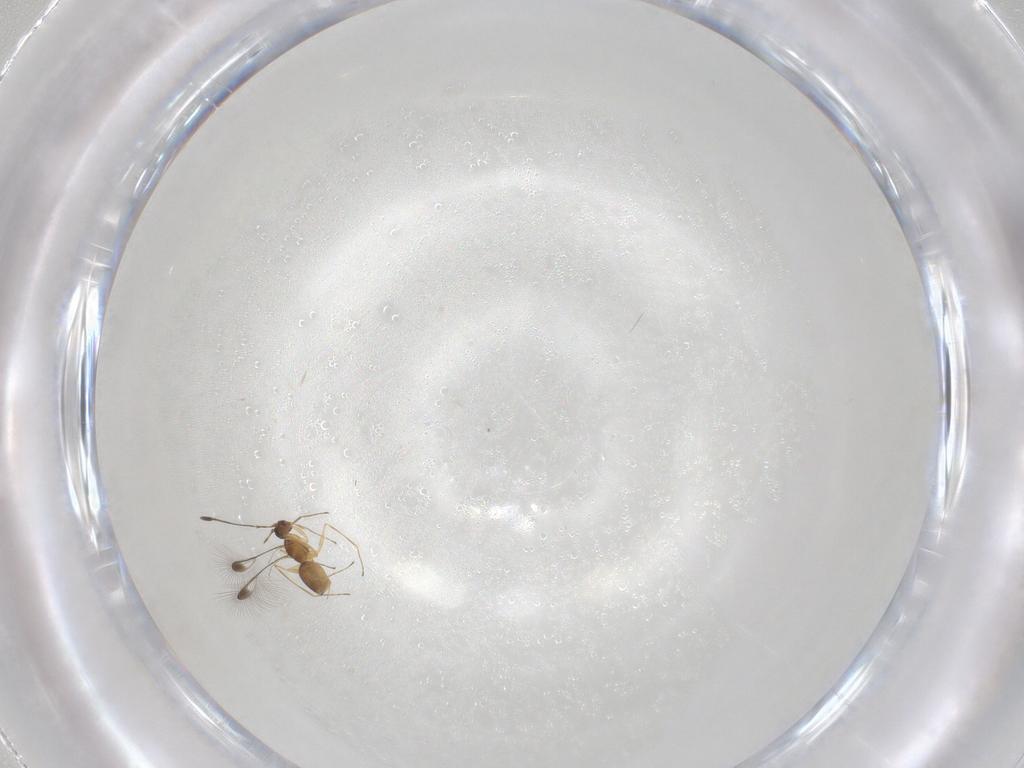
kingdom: Animalia
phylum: Arthropoda
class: Insecta
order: Hymenoptera
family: Mymaridae
